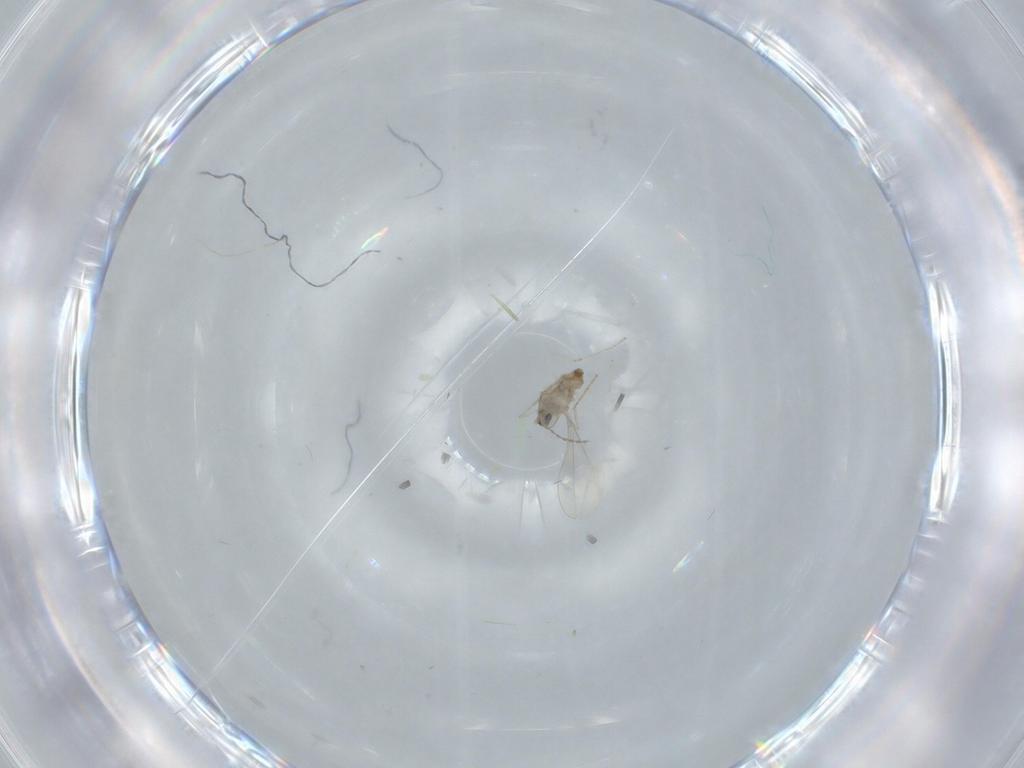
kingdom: Animalia
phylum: Arthropoda
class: Insecta
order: Diptera
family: Cecidomyiidae
